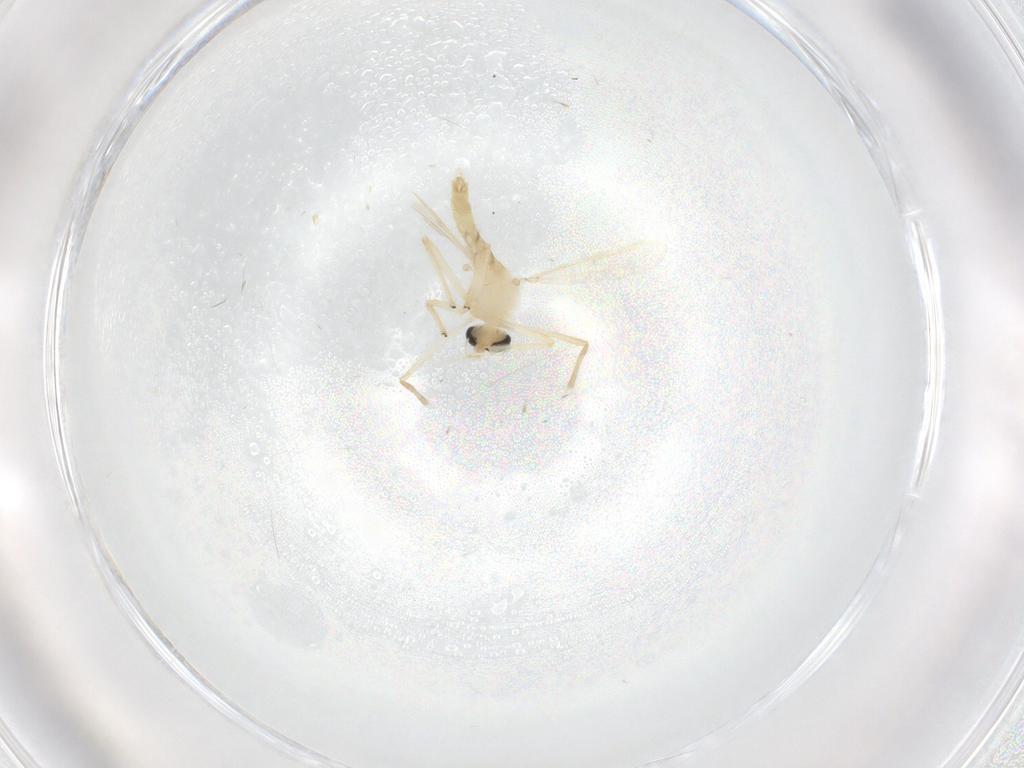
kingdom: Animalia
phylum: Arthropoda
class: Insecta
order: Diptera
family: Chironomidae
